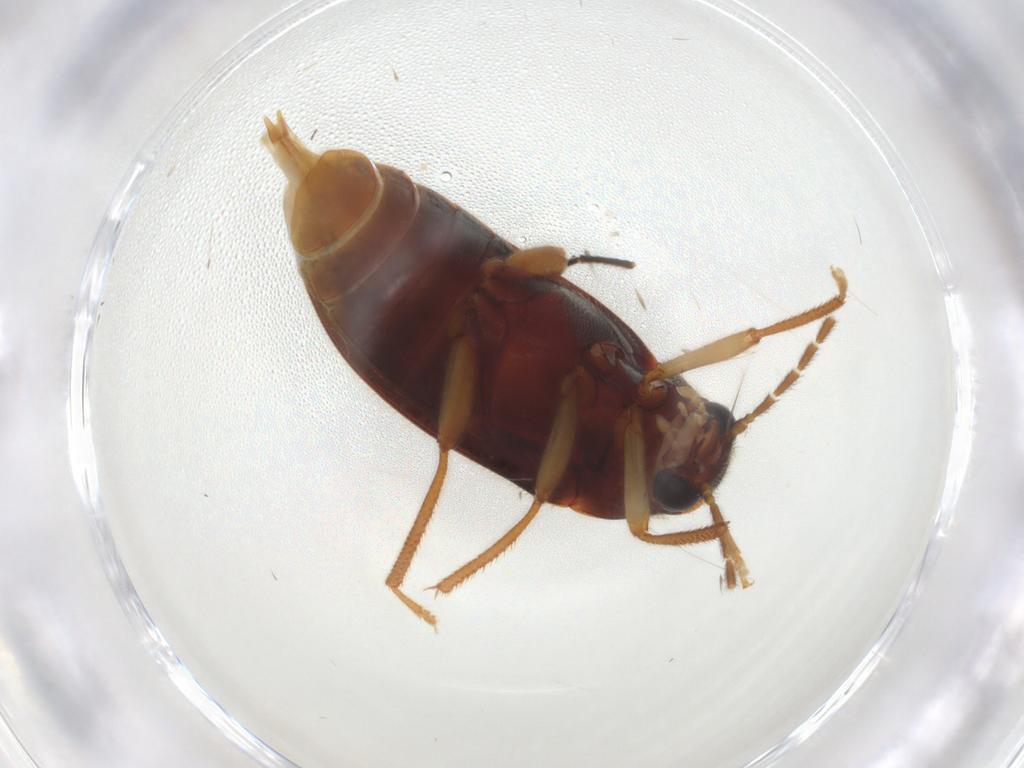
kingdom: Animalia
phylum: Arthropoda
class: Insecta
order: Coleoptera
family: Ptilodactylidae
